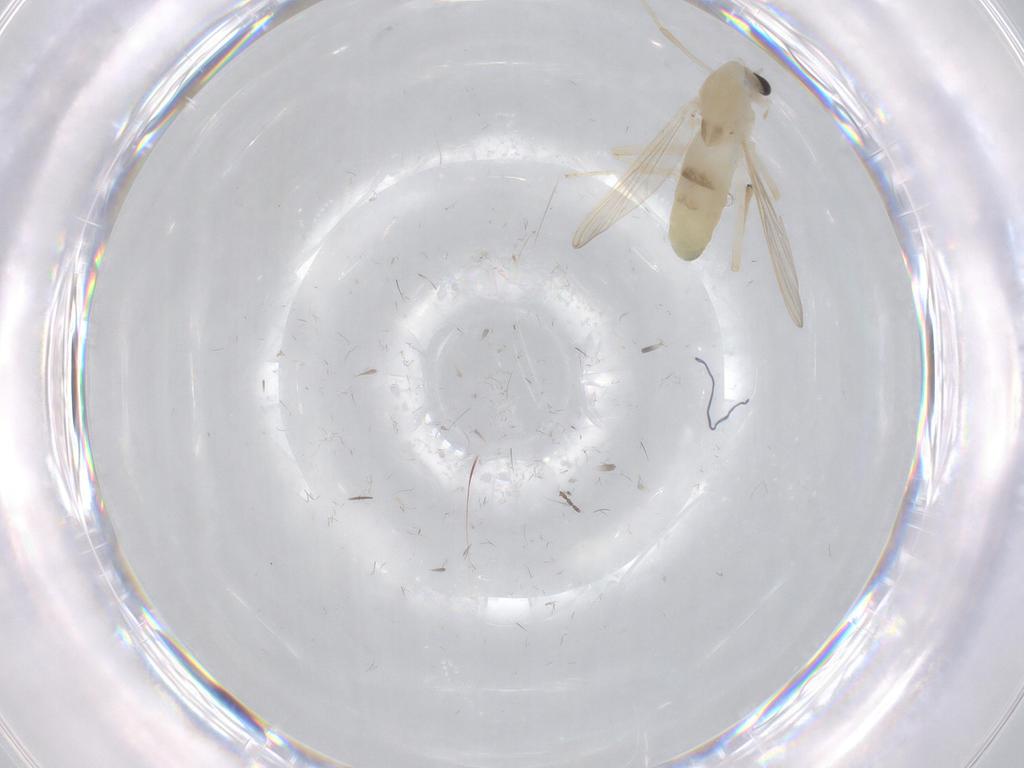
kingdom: Animalia
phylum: Arthropoda
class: Insecta
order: Diptera
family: Chironomidae
